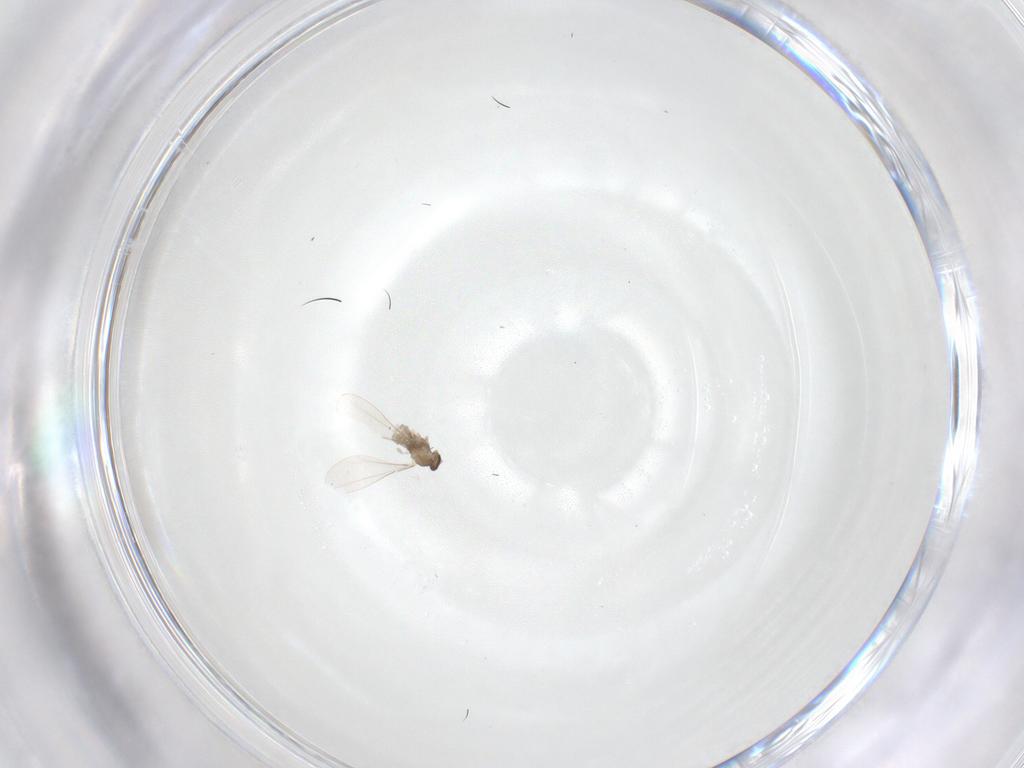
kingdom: Animalia
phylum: Arthropoda
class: Insecta
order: Diptera
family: Cecidomyiidae
